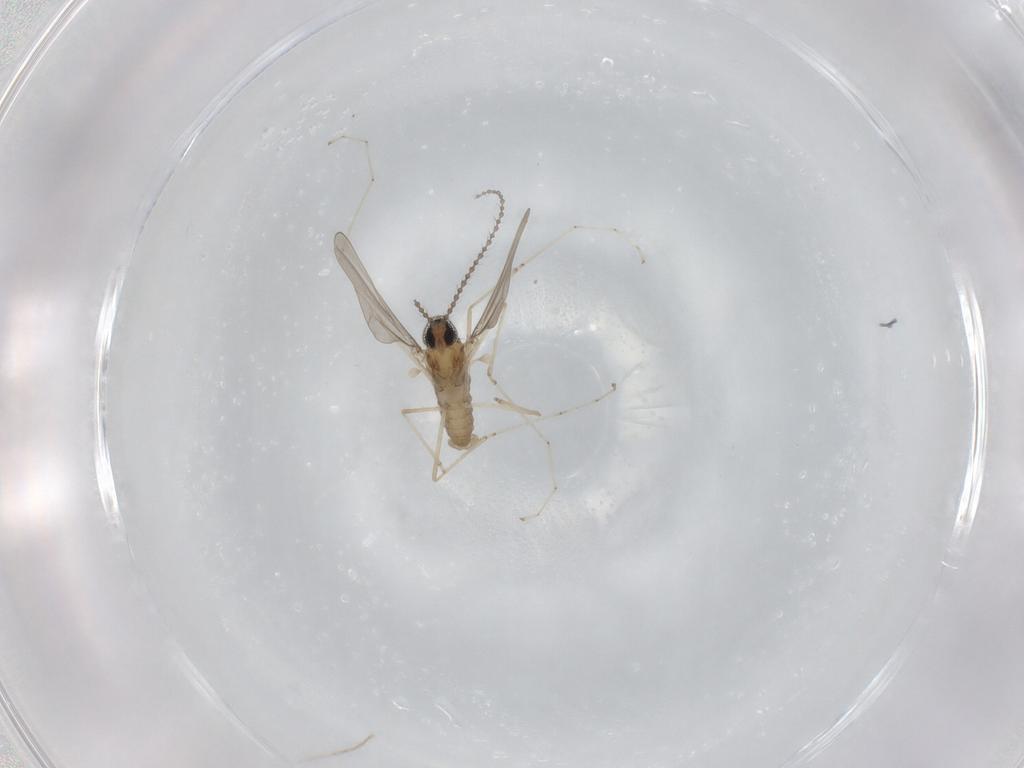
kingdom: Animalia
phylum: Arthropoda
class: Insecta
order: Diptera
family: Cecidomyiidae
